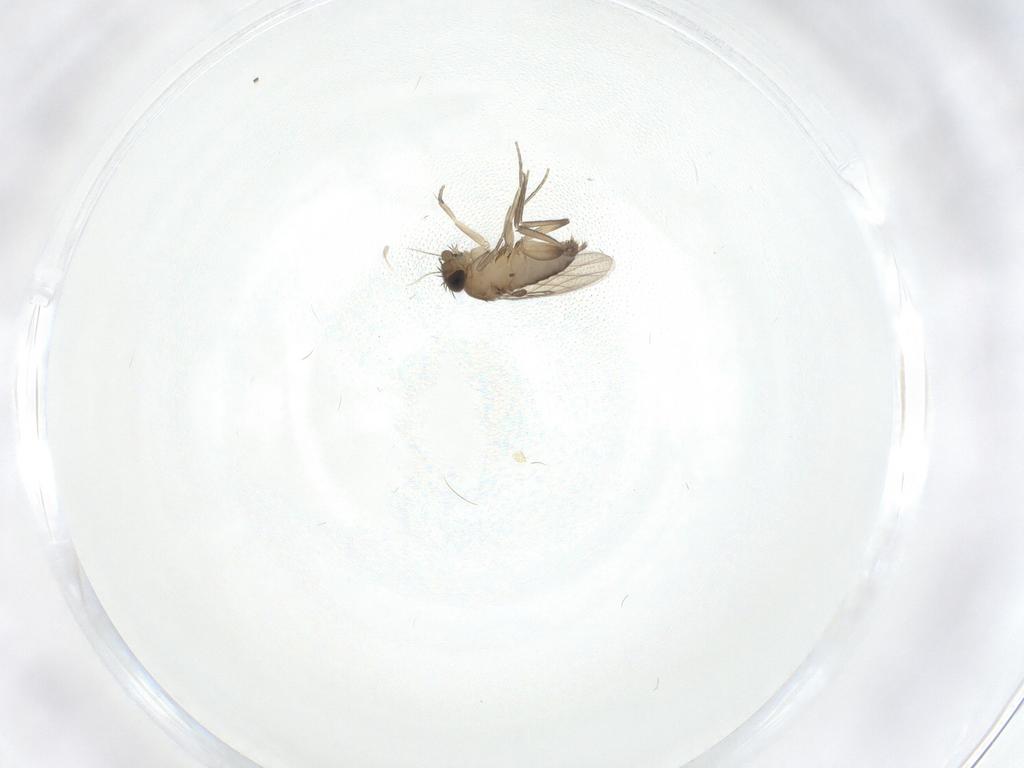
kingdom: Animalia
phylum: Arthropoda
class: Insecta
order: Diptera
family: Phoridae
